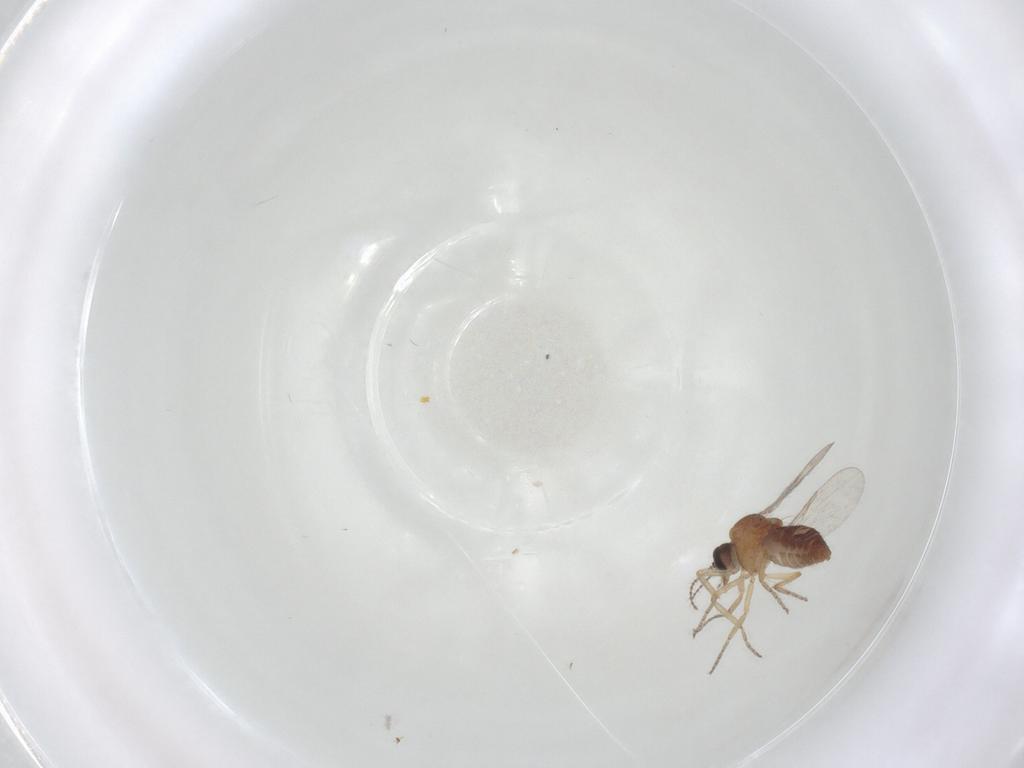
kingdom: Animalia
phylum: Arthropoda
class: Insecta
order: Diptera
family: Ceratopogonidae
